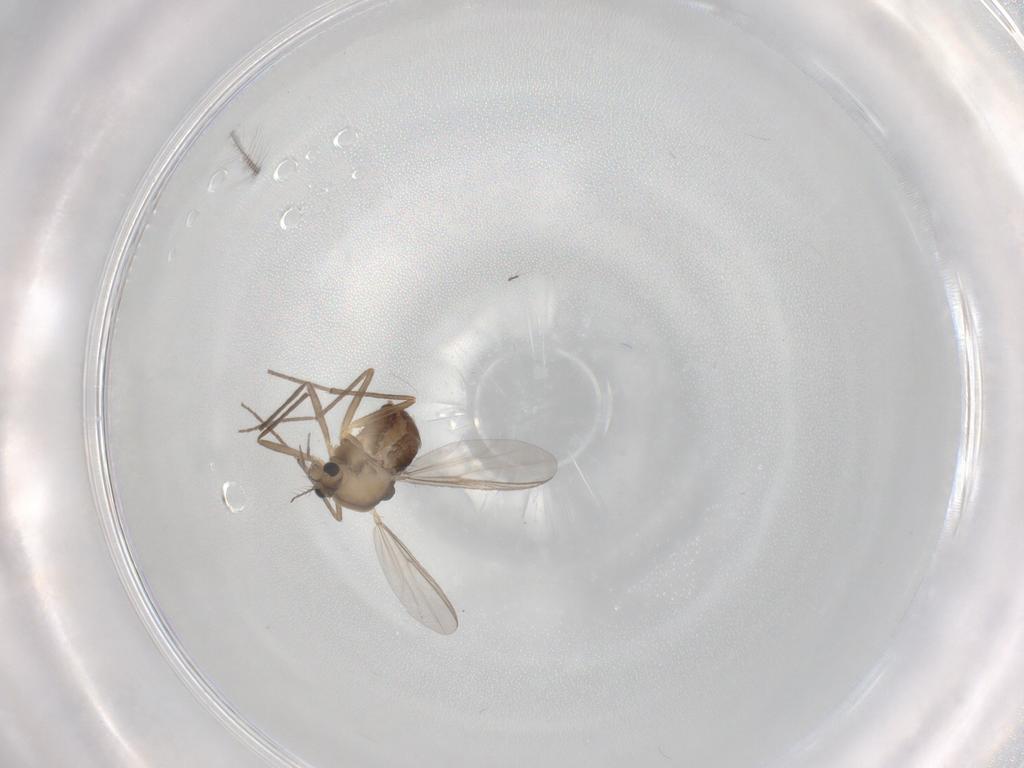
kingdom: Animalia
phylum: Arthropoda
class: Insecta
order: Diptera
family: Chironomidae
